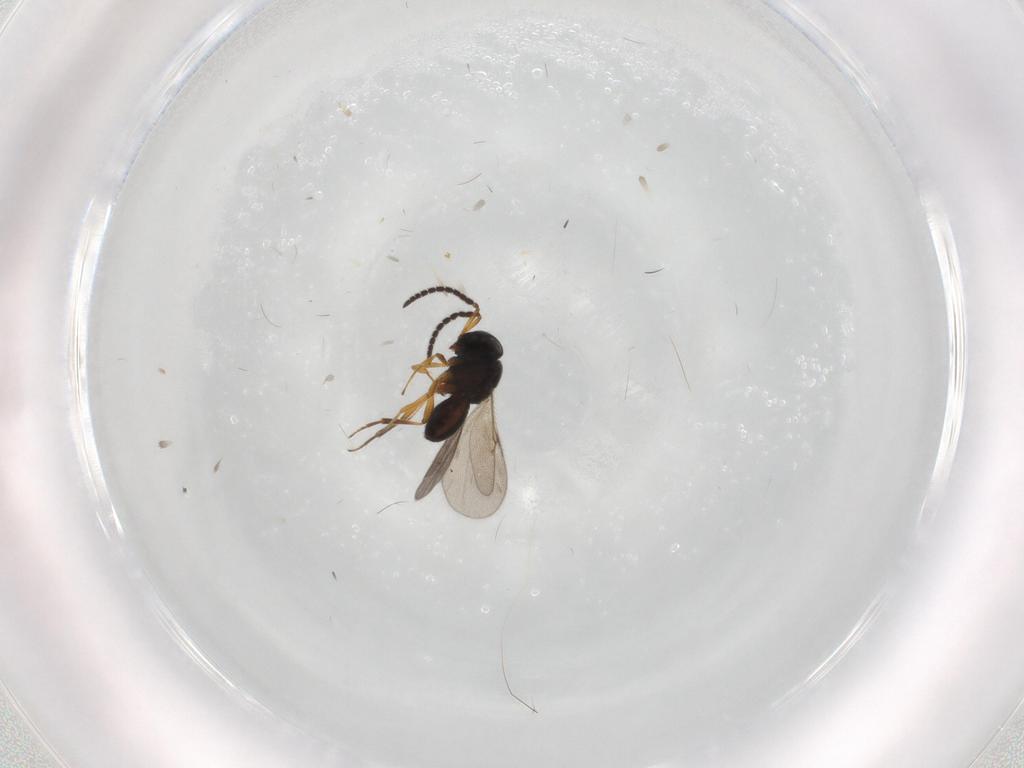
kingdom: Animalia
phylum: Arthropoda
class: Insecta
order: Hymenoptera
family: Scelionidae
